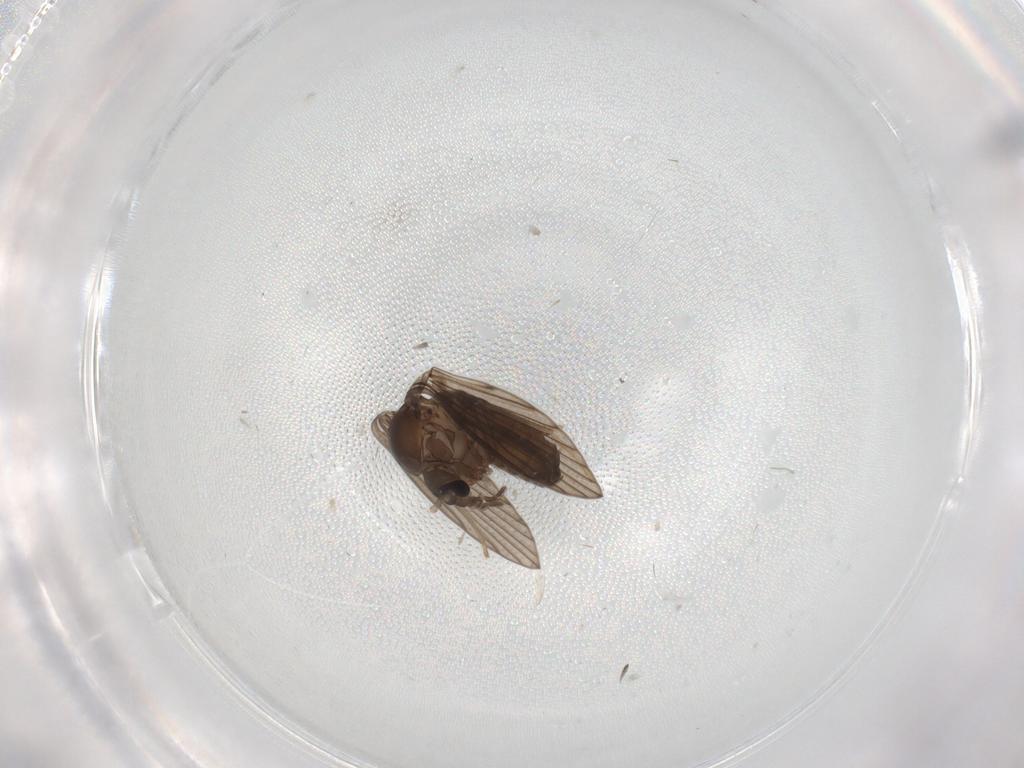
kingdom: Animalia
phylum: Arthropoda
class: Insecta
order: Diptera
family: Psychodidae
